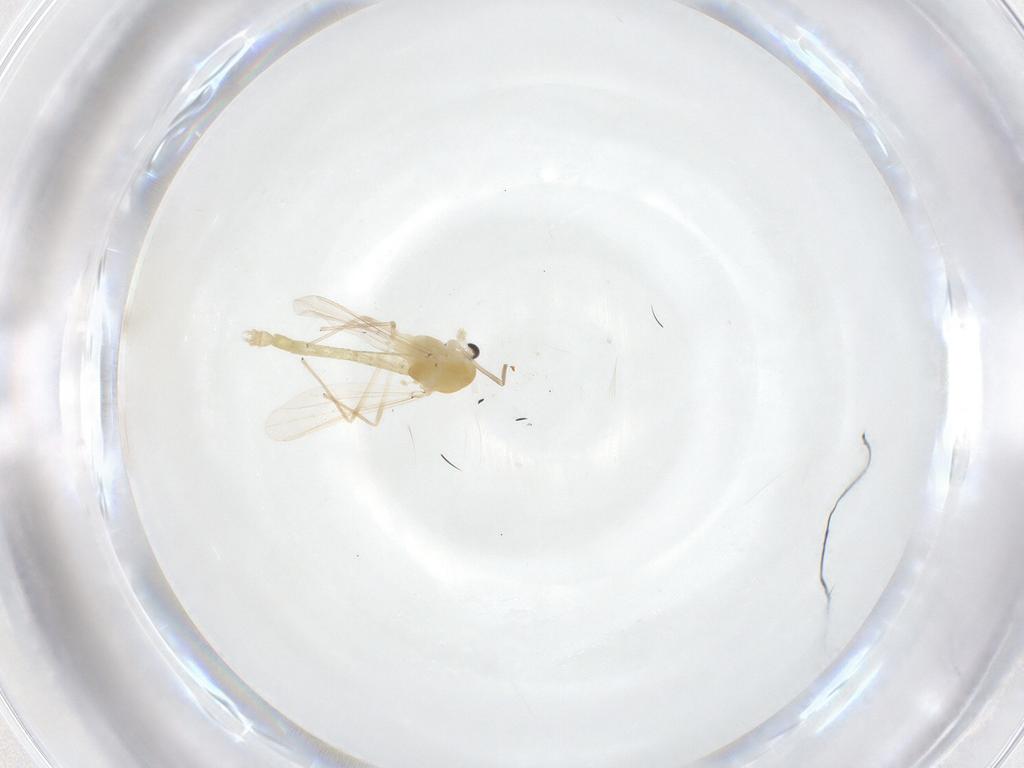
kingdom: Animalia
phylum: Arthropoda
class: Insecta
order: Diptera
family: Chironomidae
